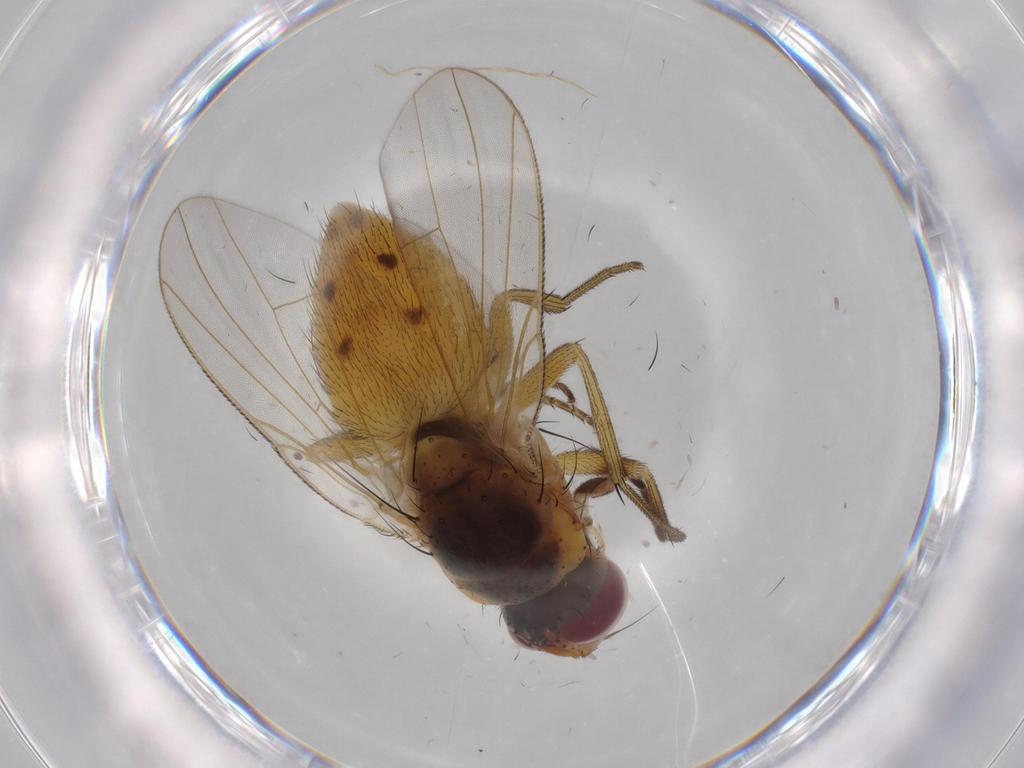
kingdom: Animalia
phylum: Arthropoda
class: Insecta
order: Diptera
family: Muscidae
